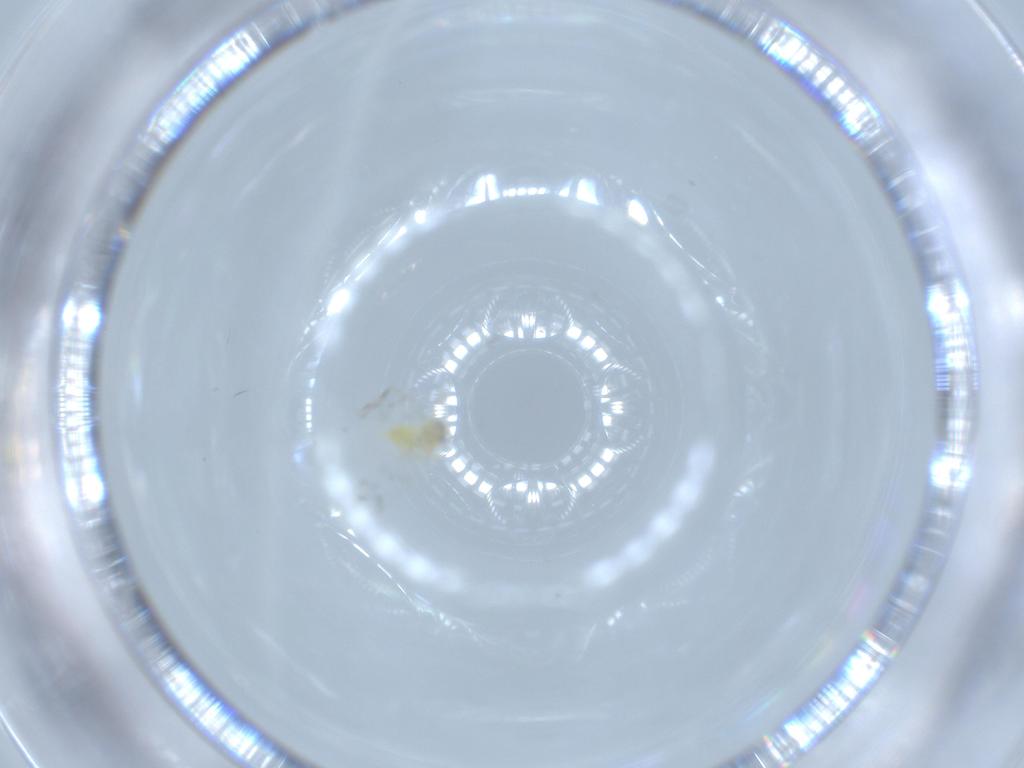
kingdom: Animalia
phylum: Arthropoda
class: Insecta
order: Hemiptera
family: Aleyrodidae
